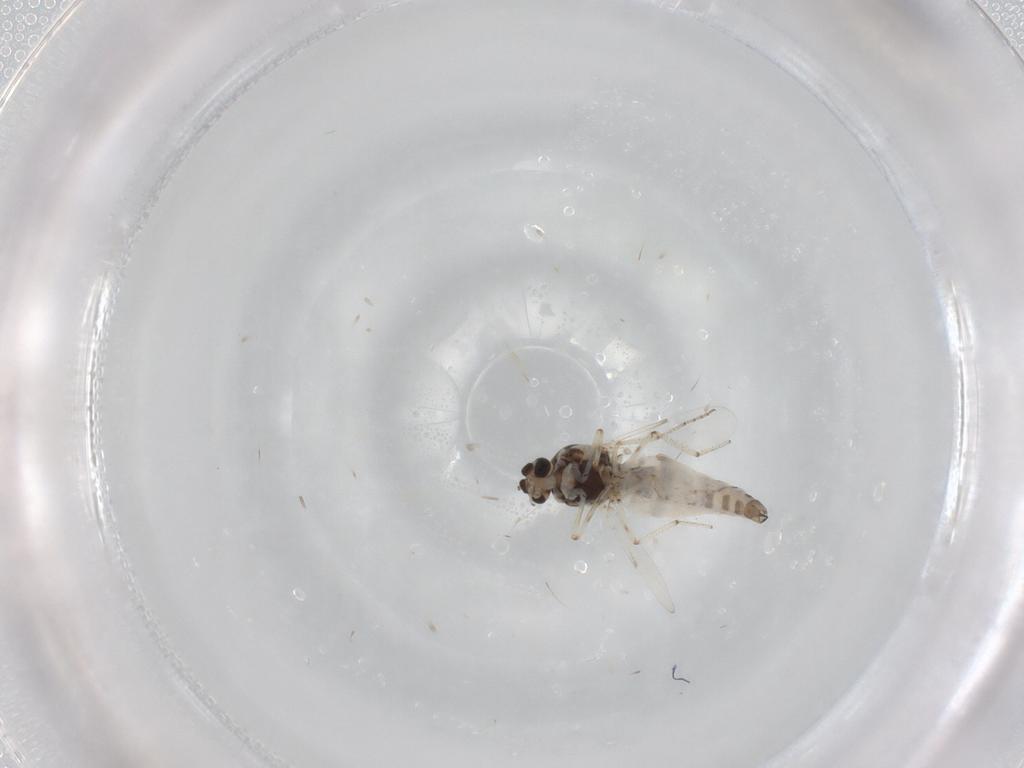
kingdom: Animalia
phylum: Arthropoda
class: Insecta
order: Diptera
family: Ceratopogonidae
